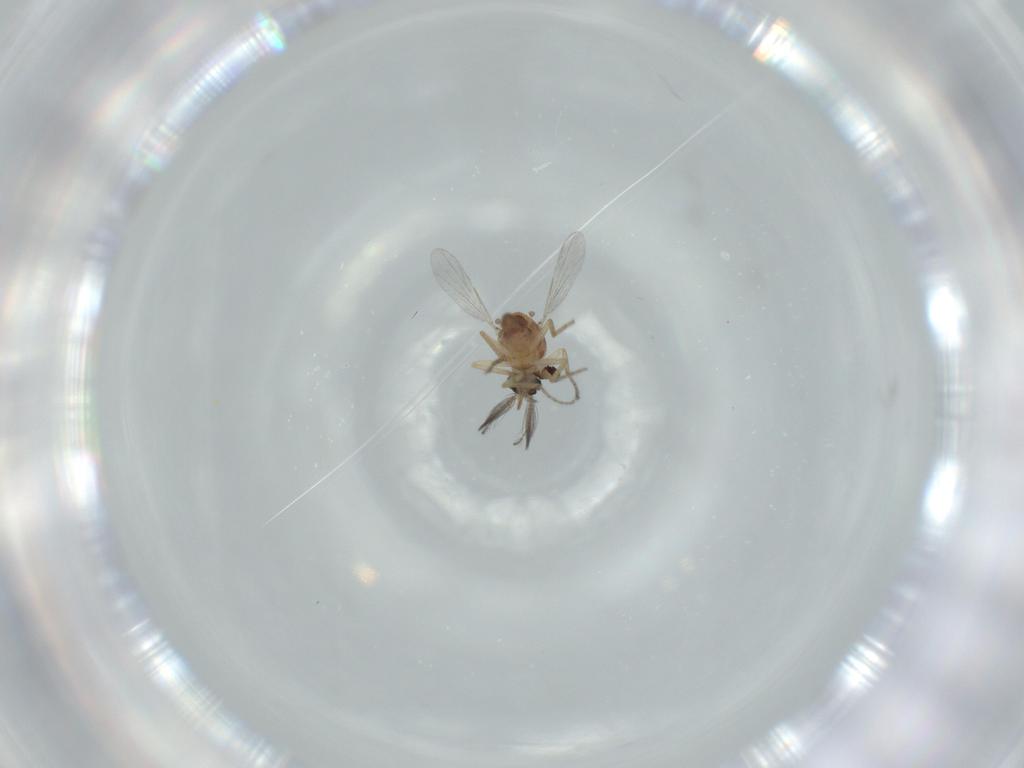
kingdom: Animalia
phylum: Arthropoda
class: Insecta
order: Diptera
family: Ceratopogonidae
